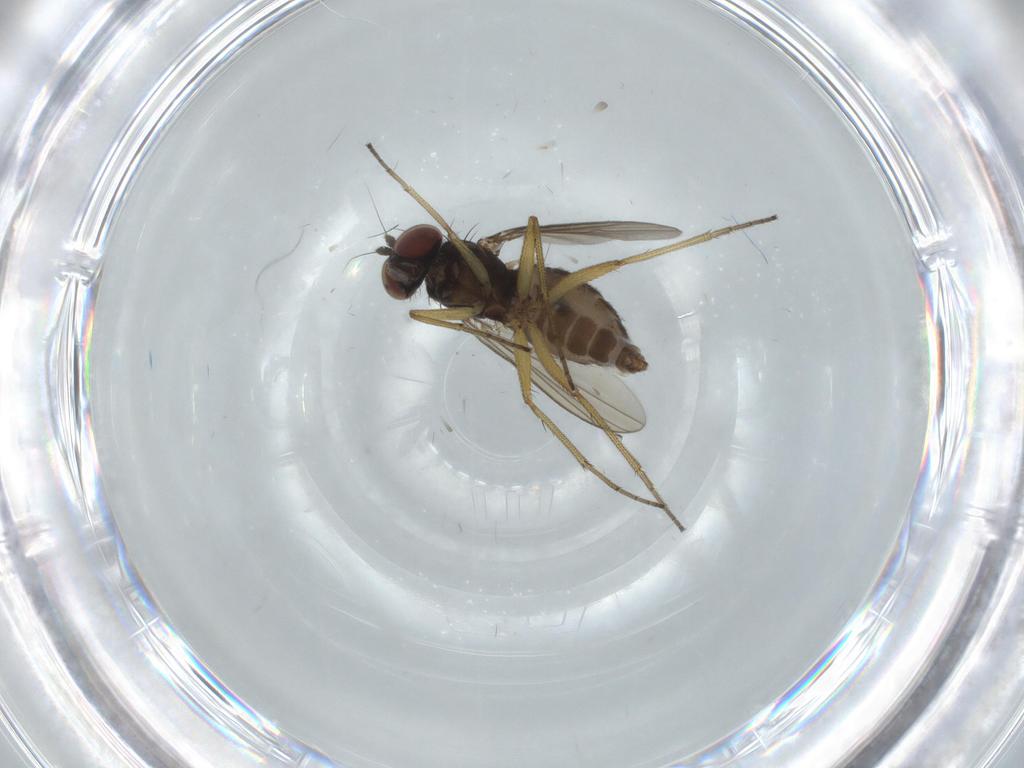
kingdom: Animalia
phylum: Arthropoda
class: Insecta
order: Diptera
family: Dolichopodidae
